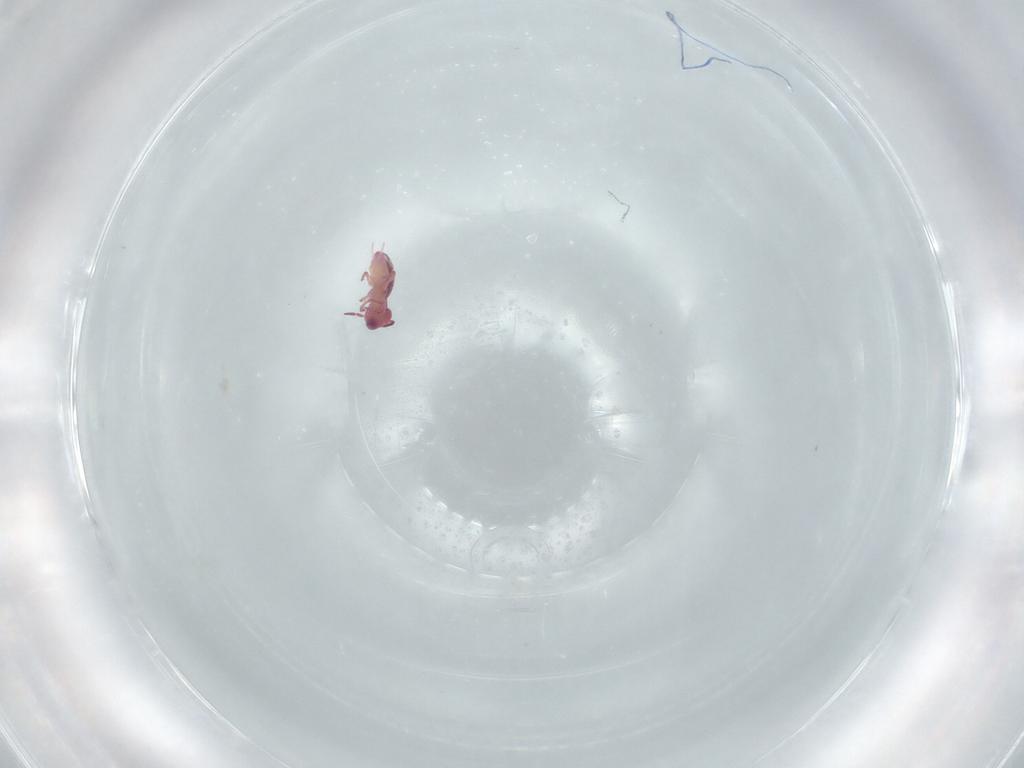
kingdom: Animalia
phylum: Arthropoda
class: Collembola
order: Symphypleona
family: Sminthurididae
